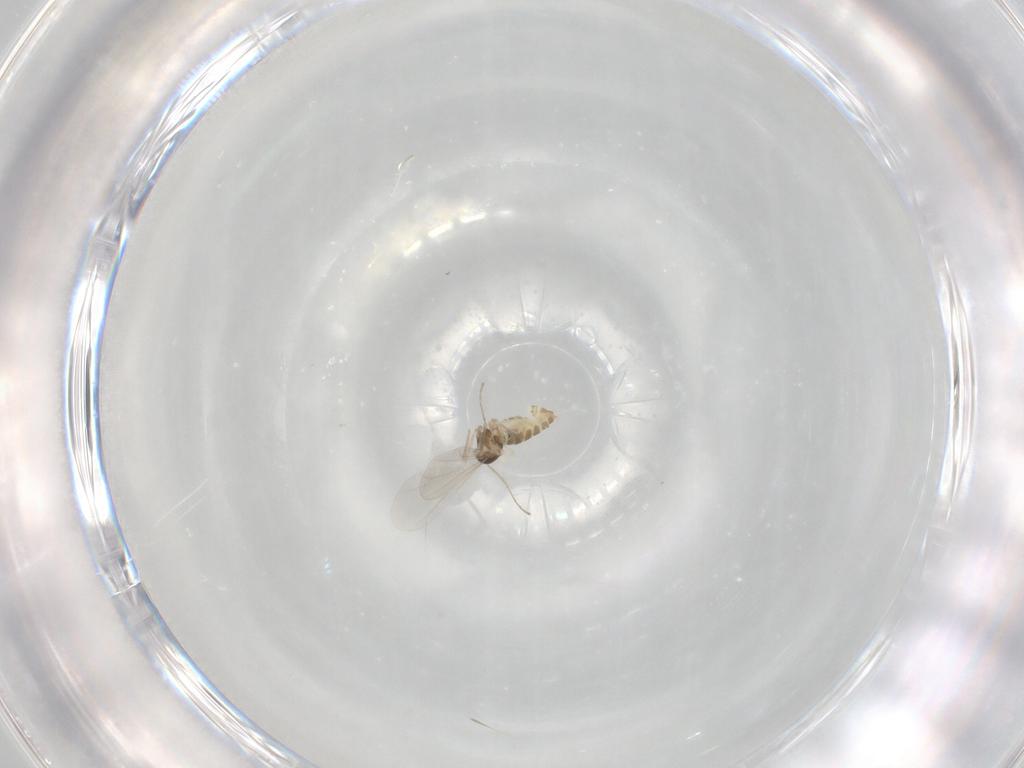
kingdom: Animalia
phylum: Arthropoda
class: Insecta
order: Diptera
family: Cecidomyiidae
